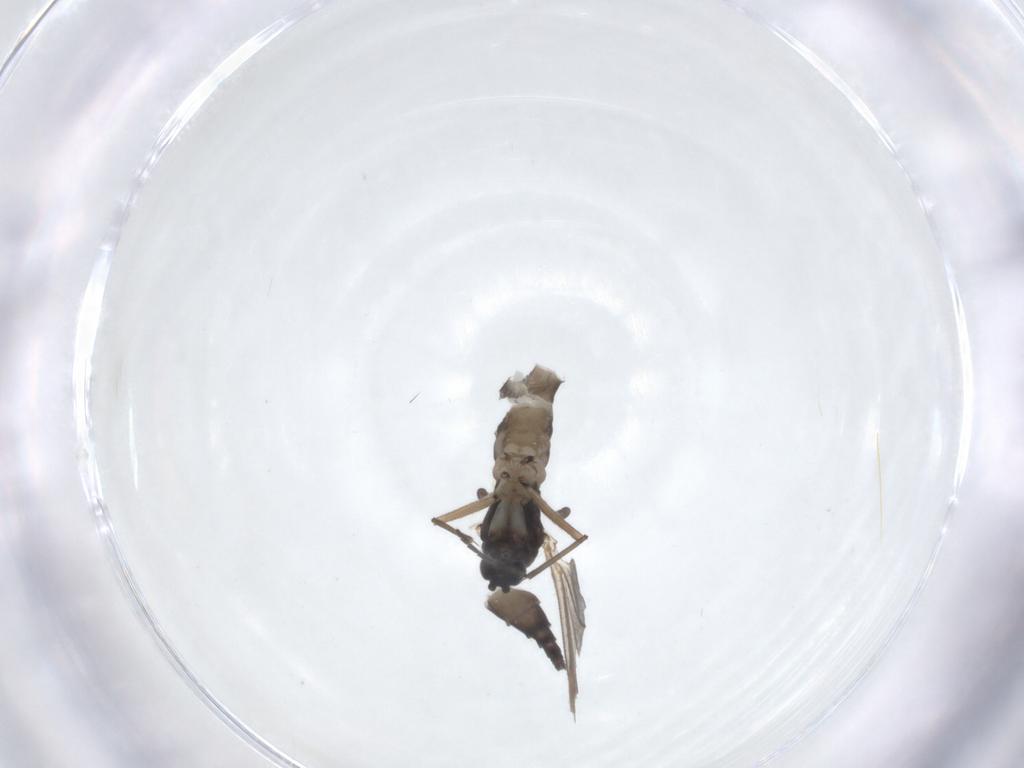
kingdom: Animalia
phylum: Arthropoda
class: Insecta
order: Diptera
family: Sciaridae
